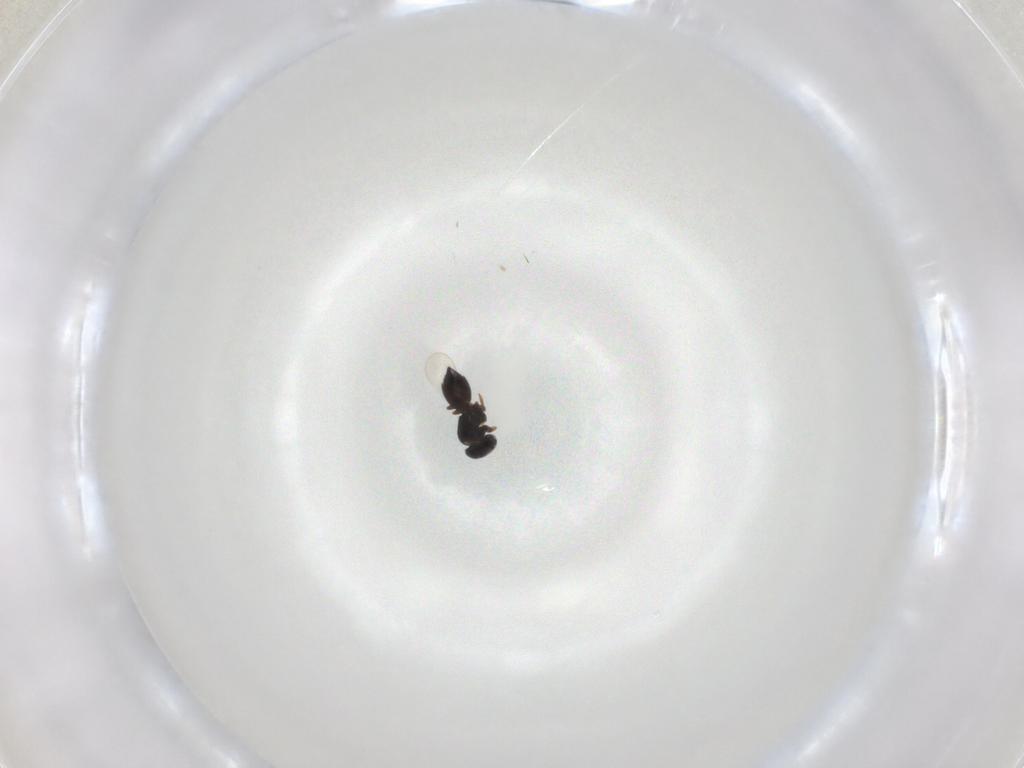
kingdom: Animalia
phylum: Arthropoda
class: Insecta
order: Hymenoptera
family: Scelionidae
